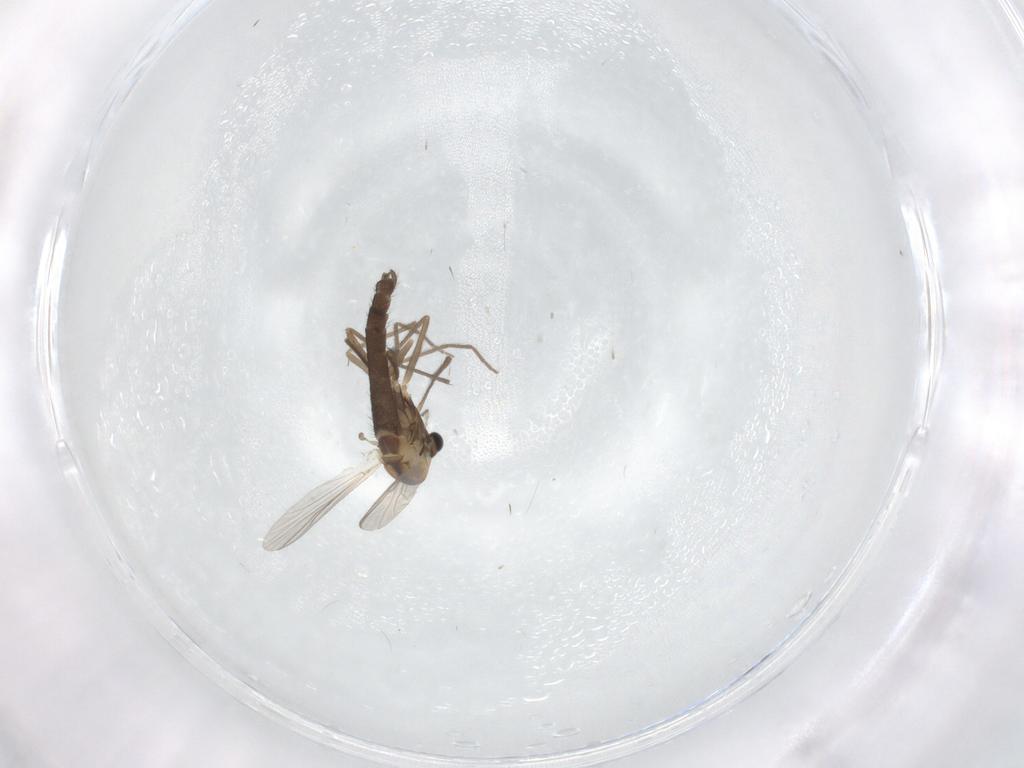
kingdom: Animalia
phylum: Arthropoda
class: Insecta
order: Diptera
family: Chironomidae
